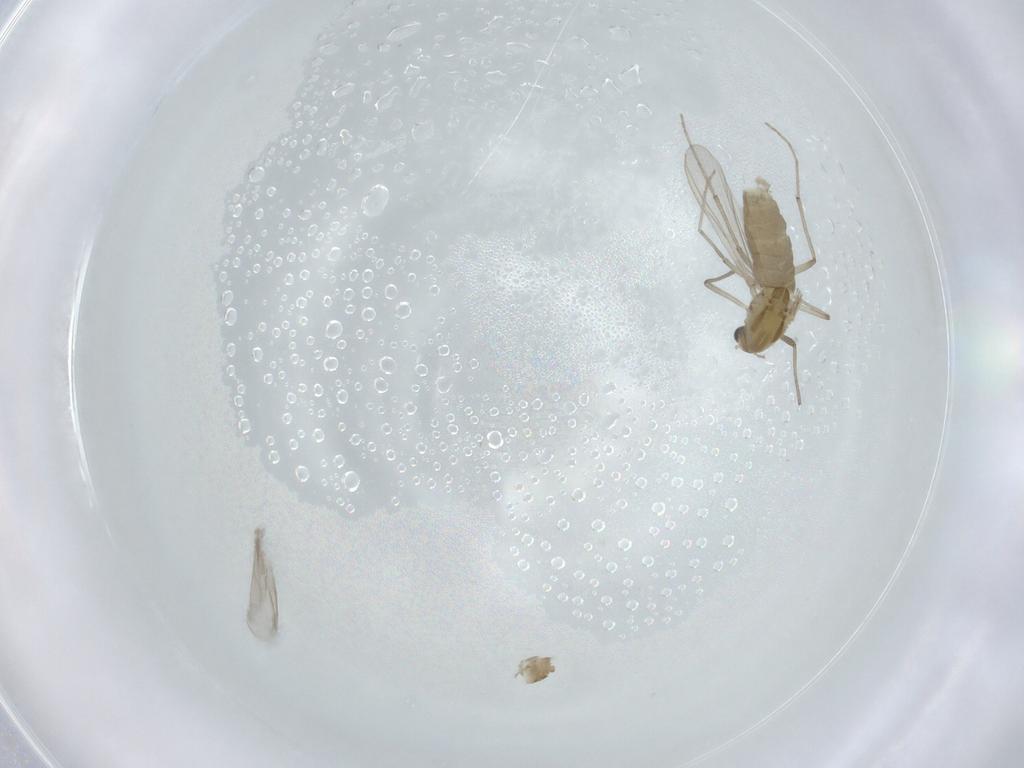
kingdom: Animalia
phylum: Arthropoda
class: Insecta
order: Diptera
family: Chironomidae
